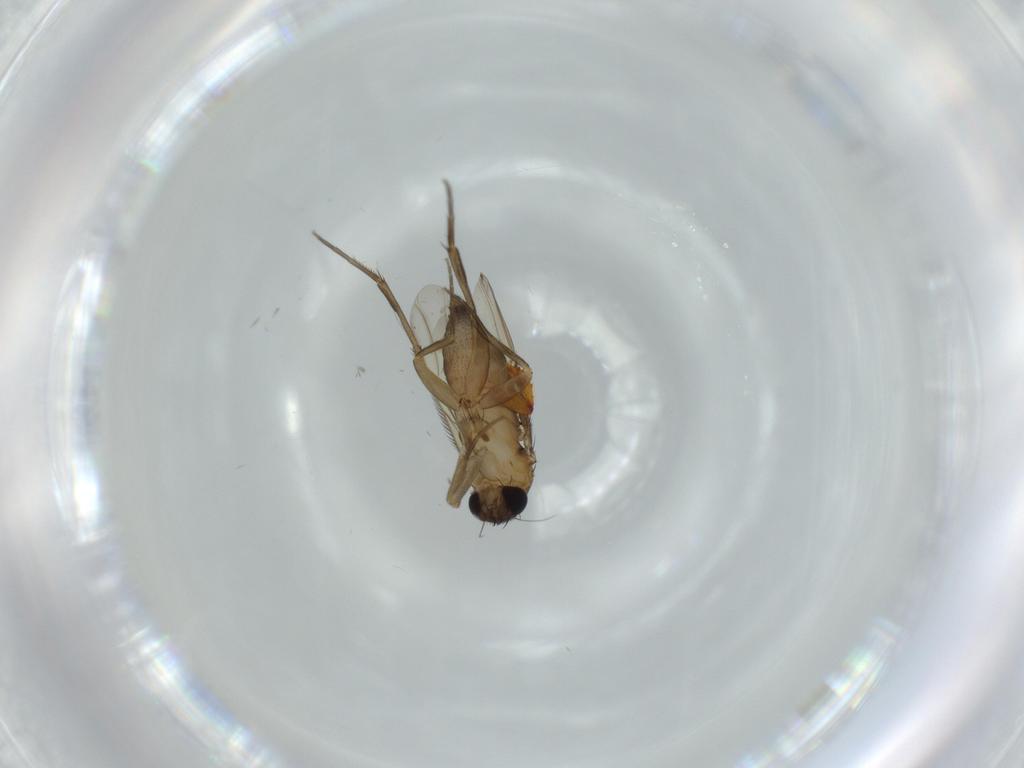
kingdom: Animalia
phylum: Arthropoda
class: Insecta
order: Diptera
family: Phoridae
